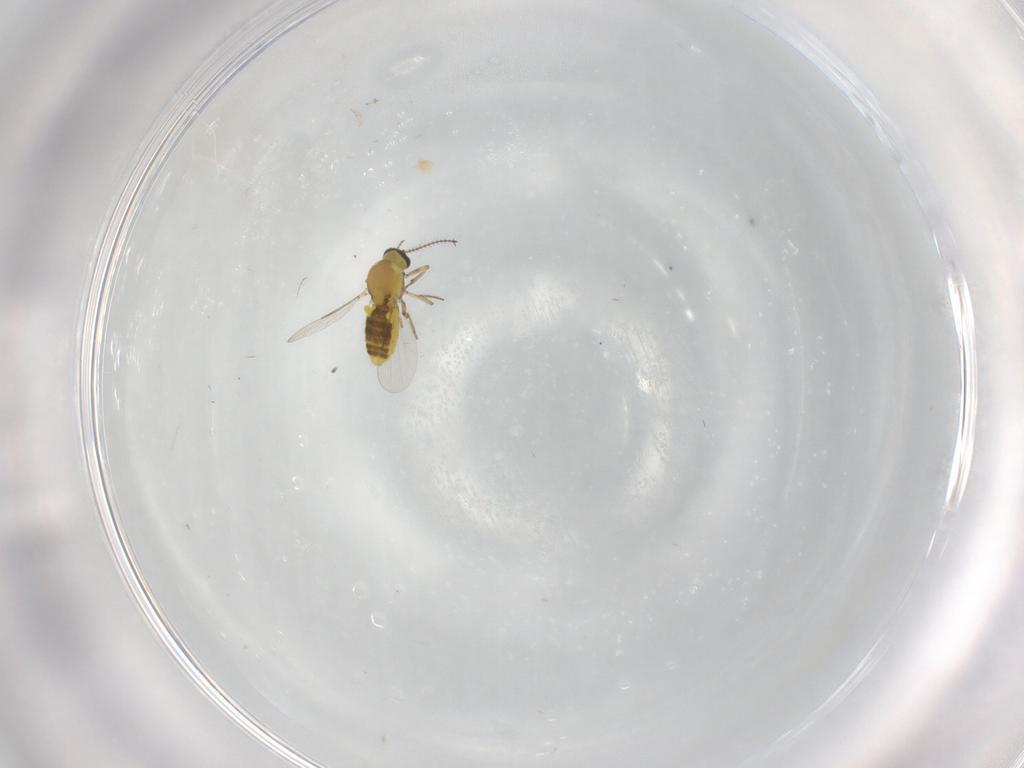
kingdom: Animalia
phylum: Arthropoda
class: Insecta
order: Diptera
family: Ceratopogonidae
